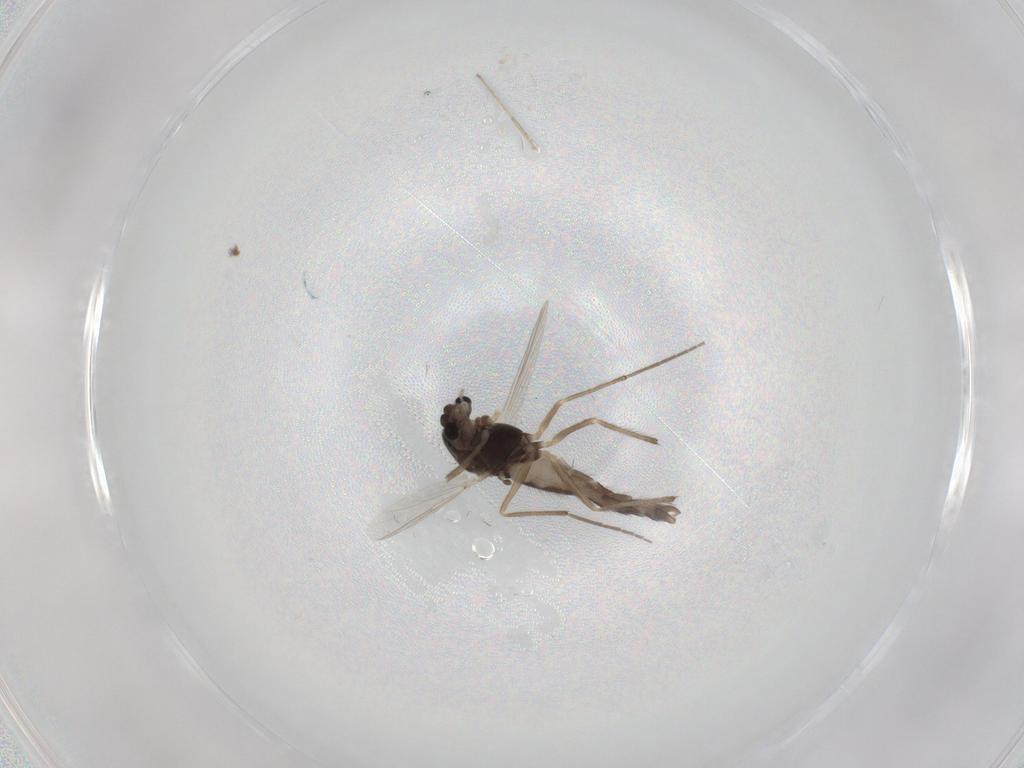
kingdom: Animalia
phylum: Arthropoda
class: Insecta
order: Diptera
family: Chironomidae
